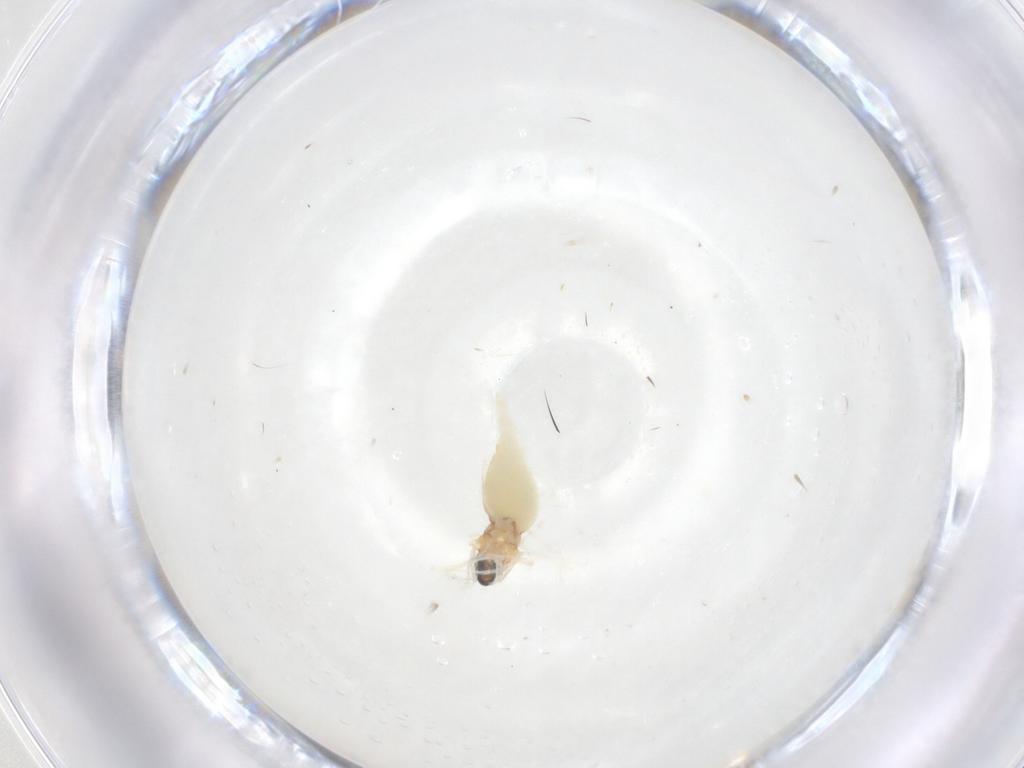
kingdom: Animalia
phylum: Arthropoda
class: Insecta
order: Diptera
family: Cecidomyiidae
